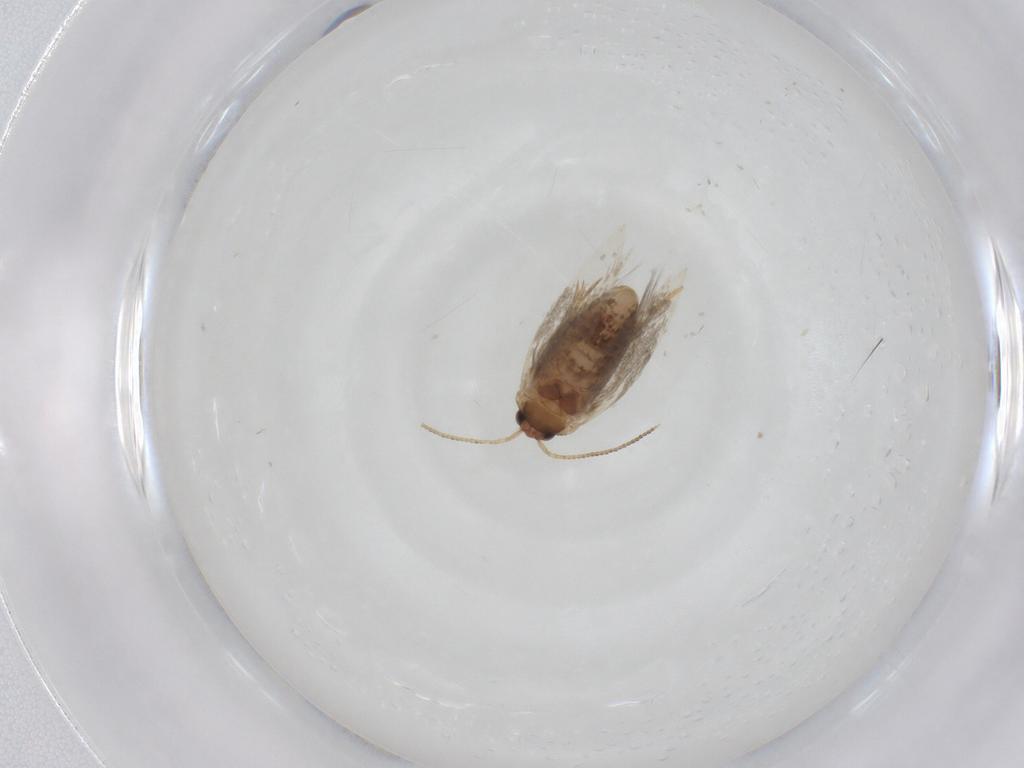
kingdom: Animalia
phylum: Arthropoda
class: Insecta
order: Lepidoptera
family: Nepticulidae
